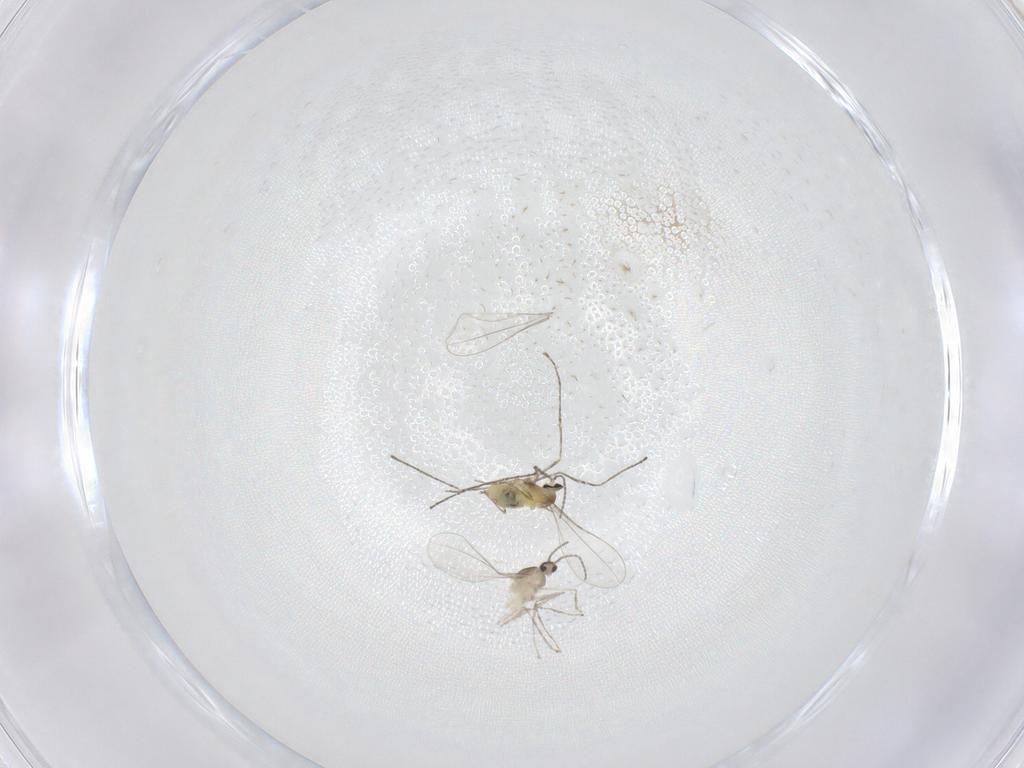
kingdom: Animalia
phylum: Arthropoda
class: Insecta
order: Diptera
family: Cecidomyiidae
